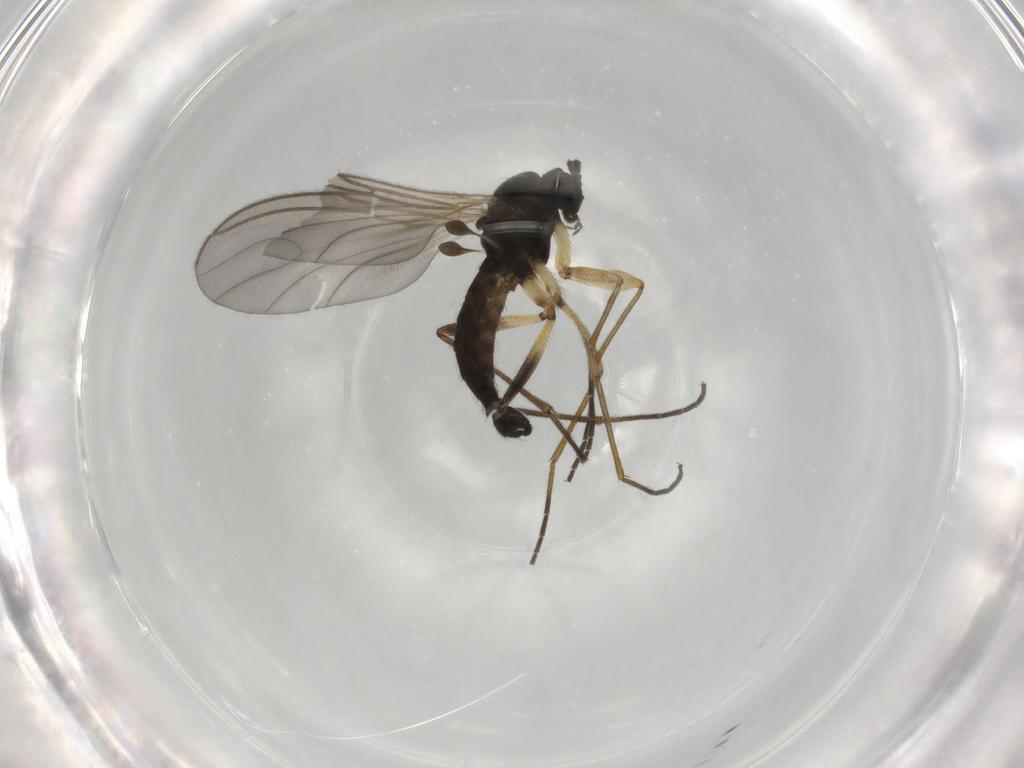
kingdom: Animalia
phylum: Arthropoda
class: Insecta
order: Diptera
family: Sciaridae
